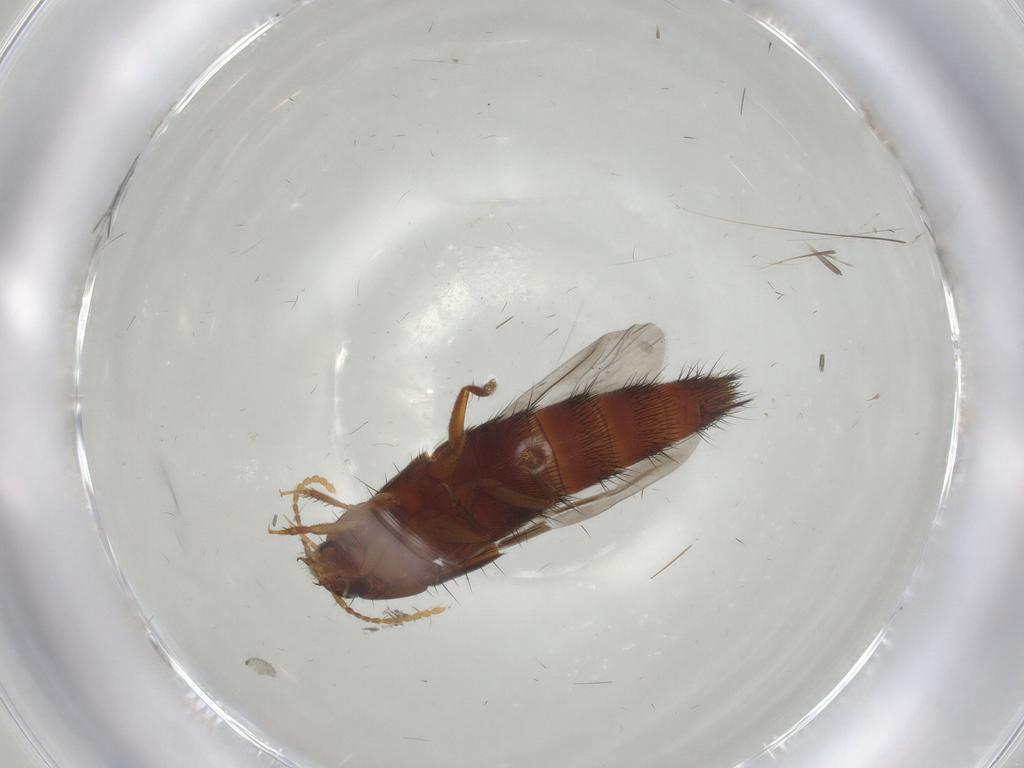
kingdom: Animalia
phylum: Arthropoda
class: Insecta
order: Coleoptera
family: Staphylinidae
